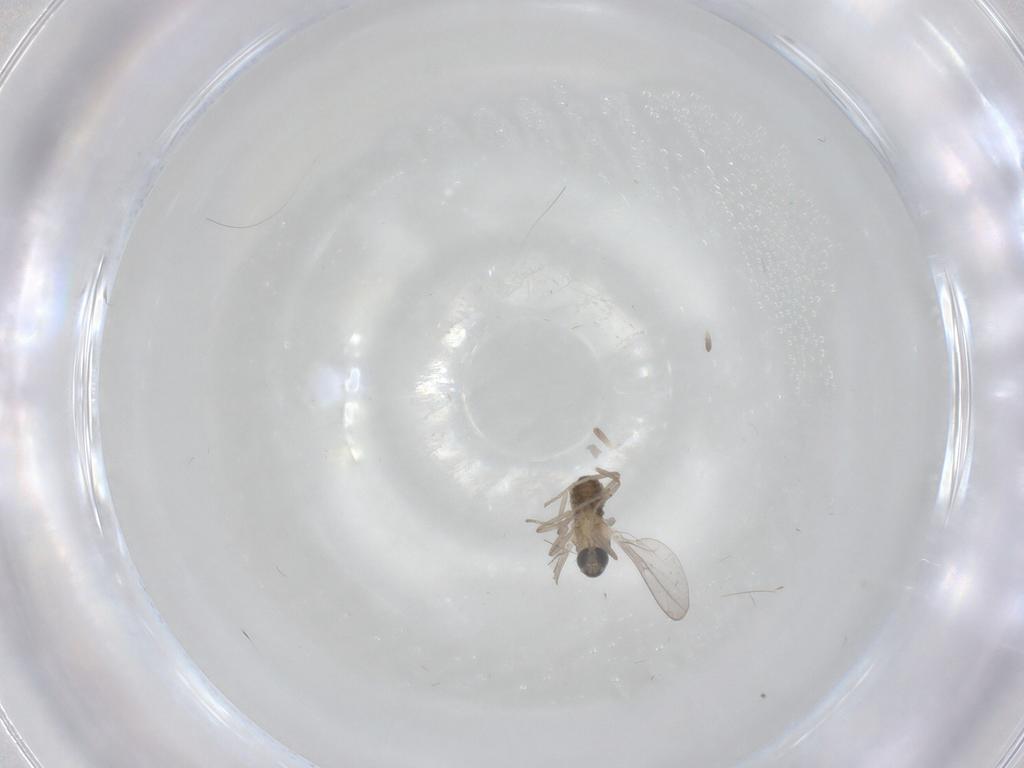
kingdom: Animalia
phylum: Arthropoda
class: Insecta
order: Diptera
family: Cecidomyiidae
